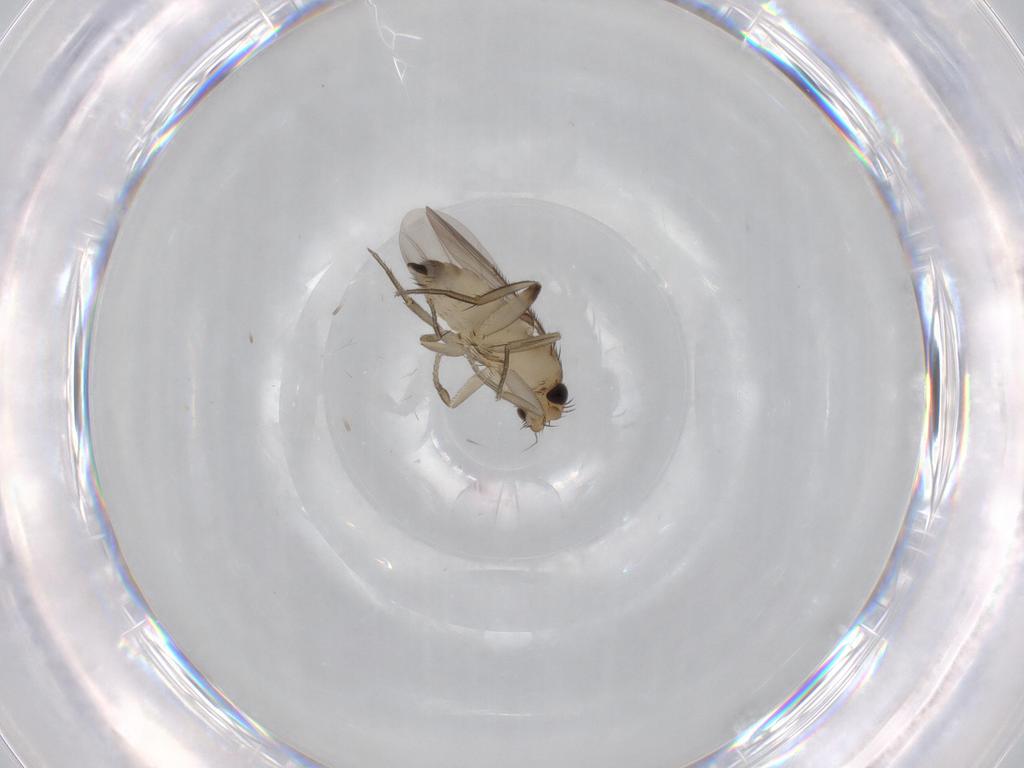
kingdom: Animalia
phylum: Arthropoda
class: Insecta
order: Diptera
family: Phoridae
